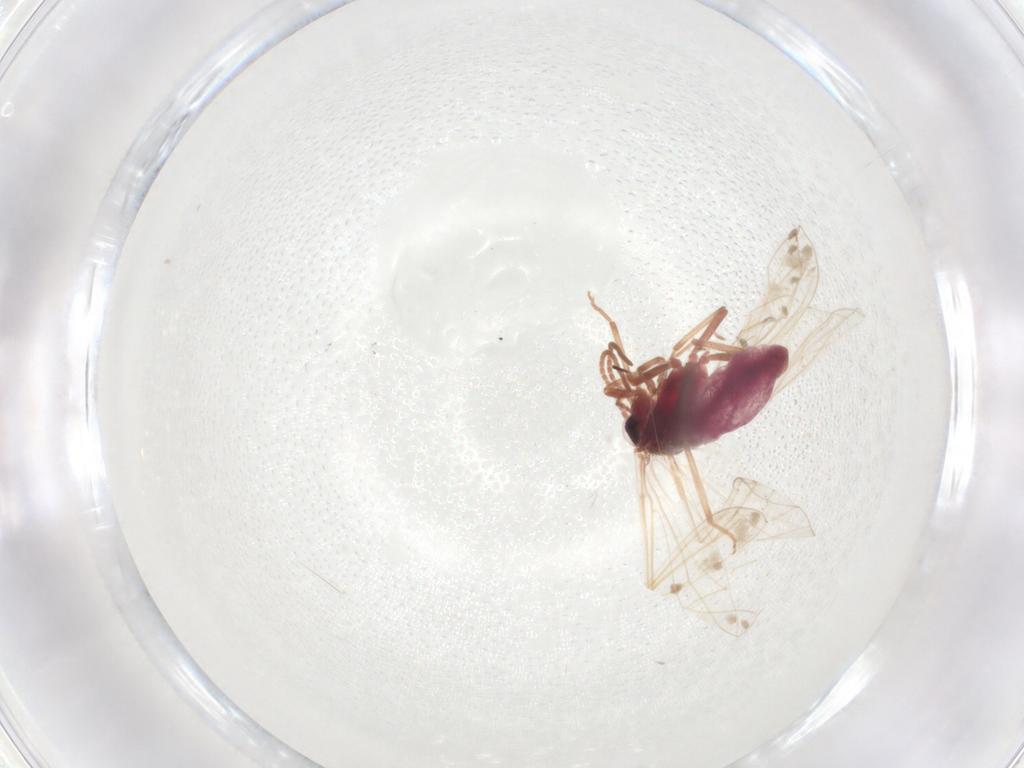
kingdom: Animalia
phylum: Arthropoda
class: Insecta
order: Neuroptera
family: Coniopterygidae
